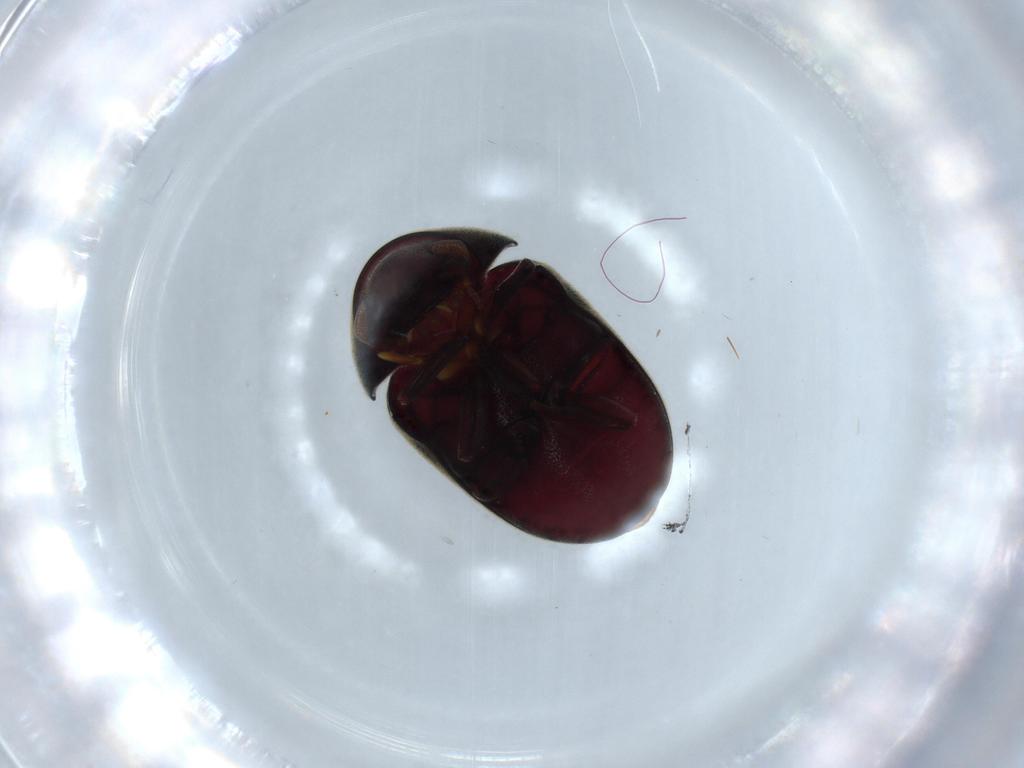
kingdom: Animalia
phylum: Arthropoda
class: Insecta
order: Coleoptera
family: Ptinidae
